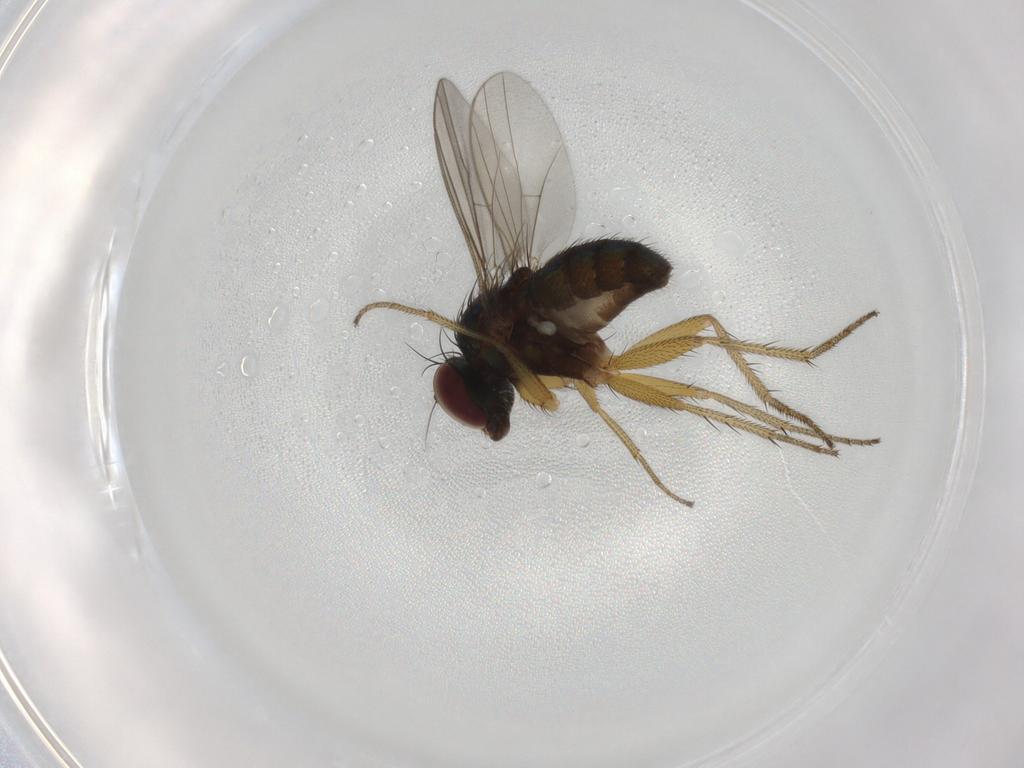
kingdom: Animalia
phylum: Arthropoda
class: Insecta
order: Diptera
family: Dolichopodidae
